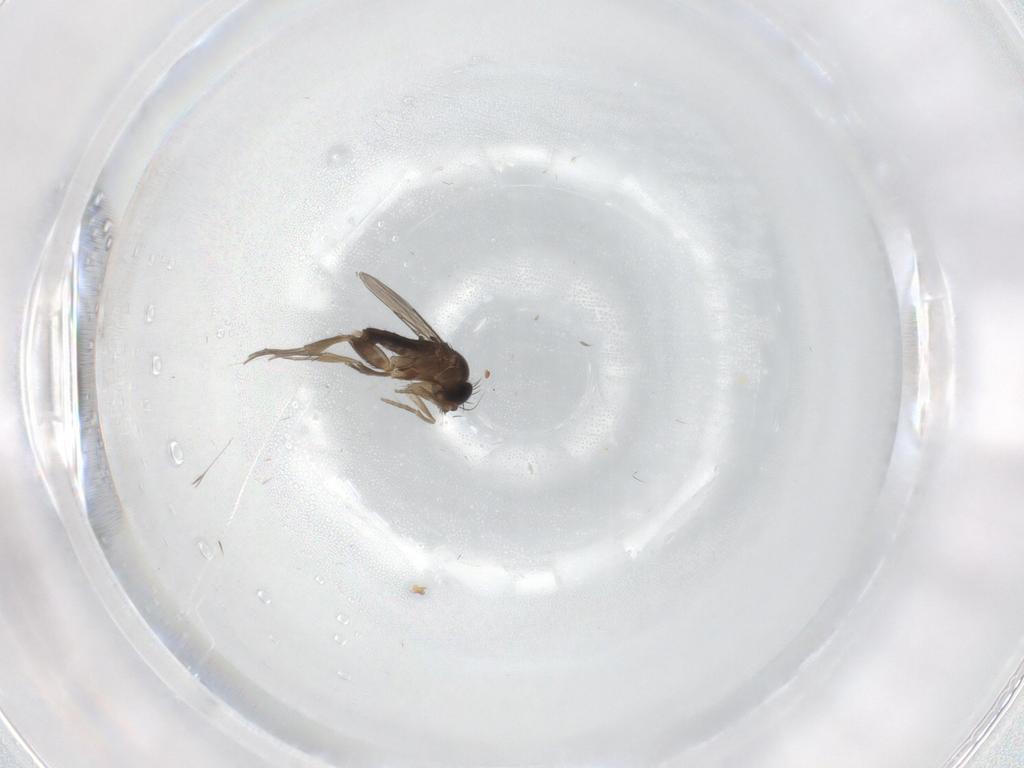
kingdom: Animalia
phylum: Arthropoda
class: Insecta
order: Diptera
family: Phoridae
